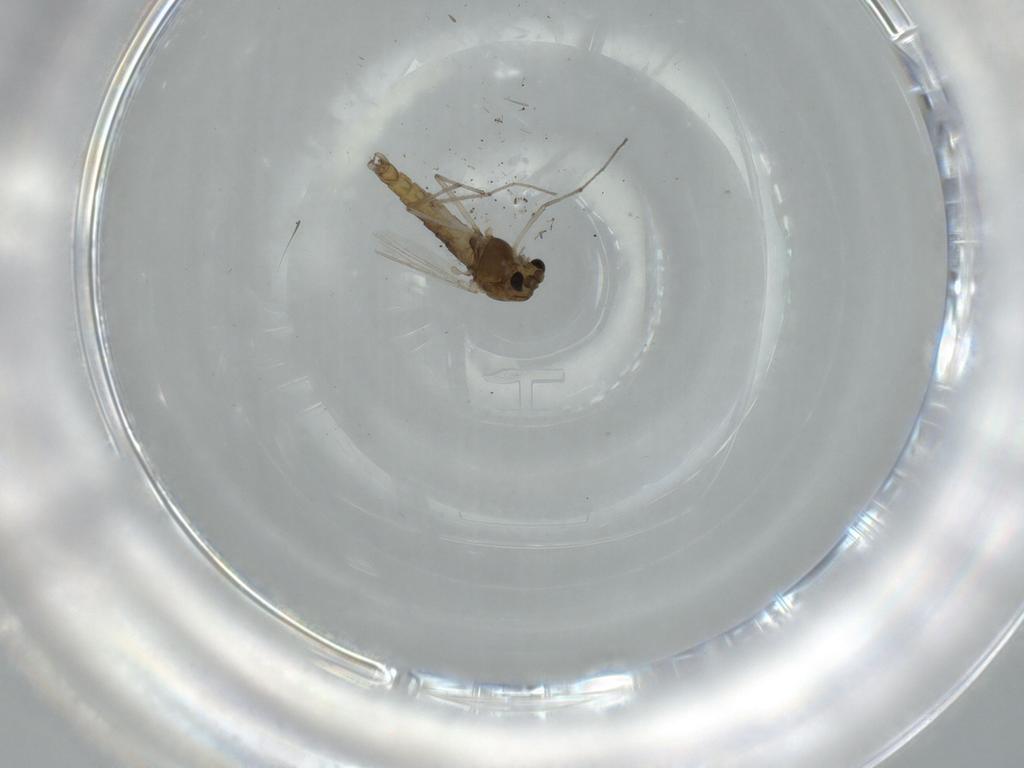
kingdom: Animalia
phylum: Arthropoda
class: Insecta
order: Diptera
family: Chironomidae
